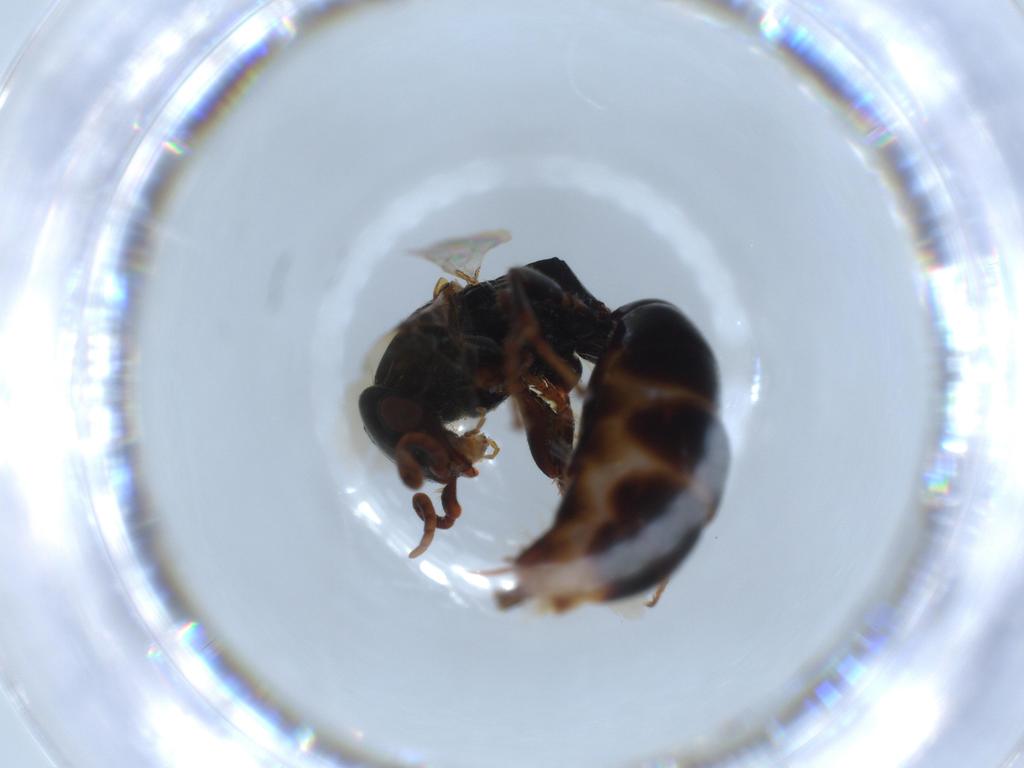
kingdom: Animalia
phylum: Arthropoda
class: Insecta
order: Hymenoptera
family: Bethylidae
